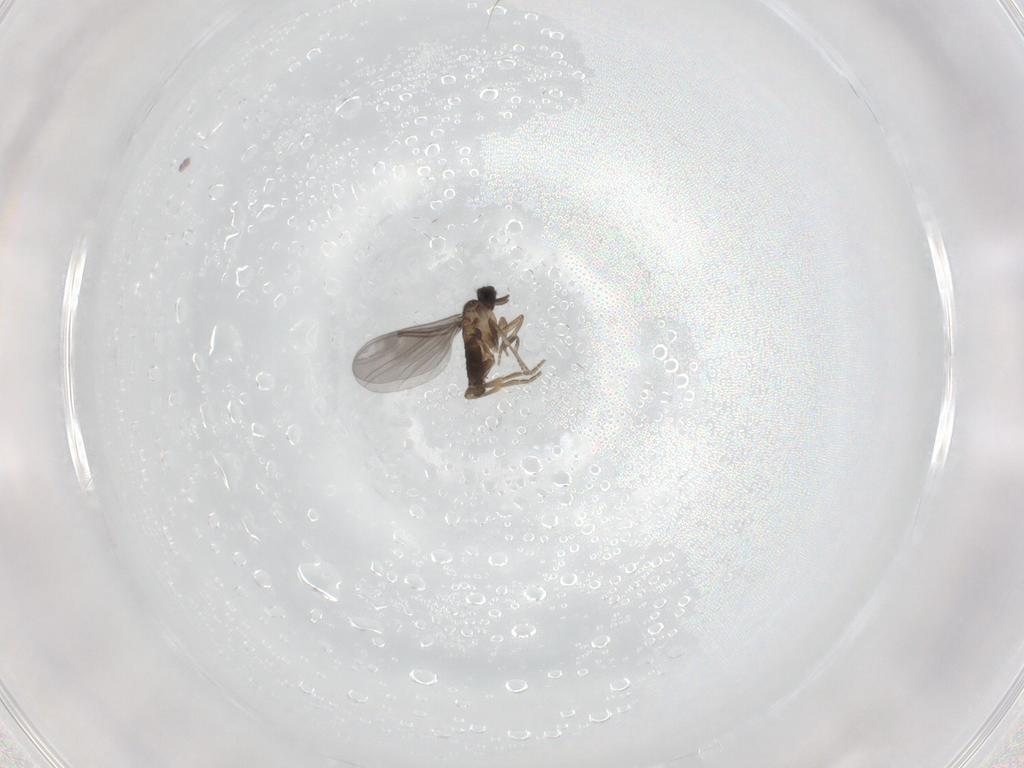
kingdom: Animalia
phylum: Arthropoda
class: Insecta
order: Diptera
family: Sciaridae
